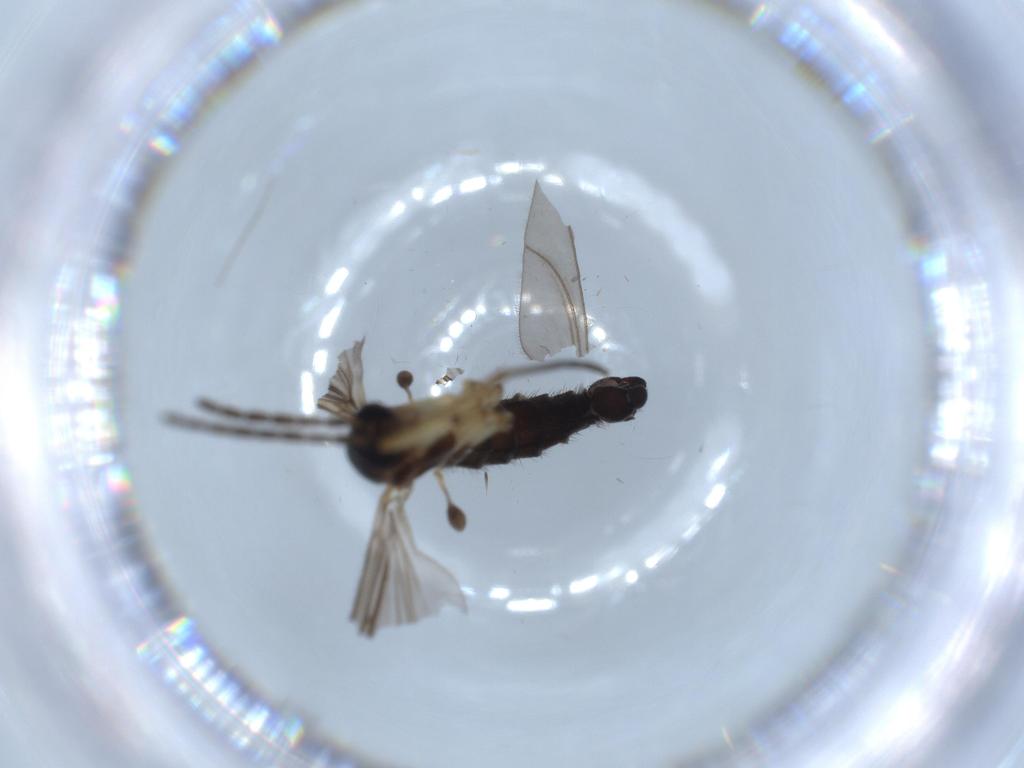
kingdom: Animalia
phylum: Arthropoda
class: Insecta
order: Diptera
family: Sciaridae
